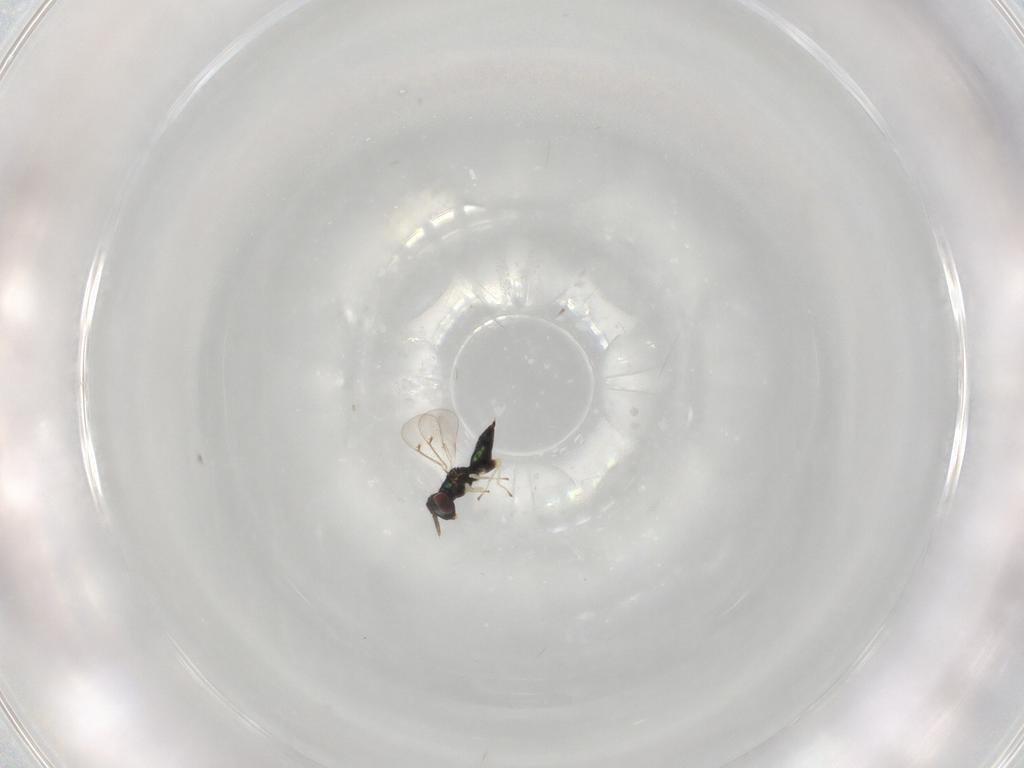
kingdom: Animalia
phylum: Arthropoda
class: Insecta
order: Hymenoptera
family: Eulophidae
